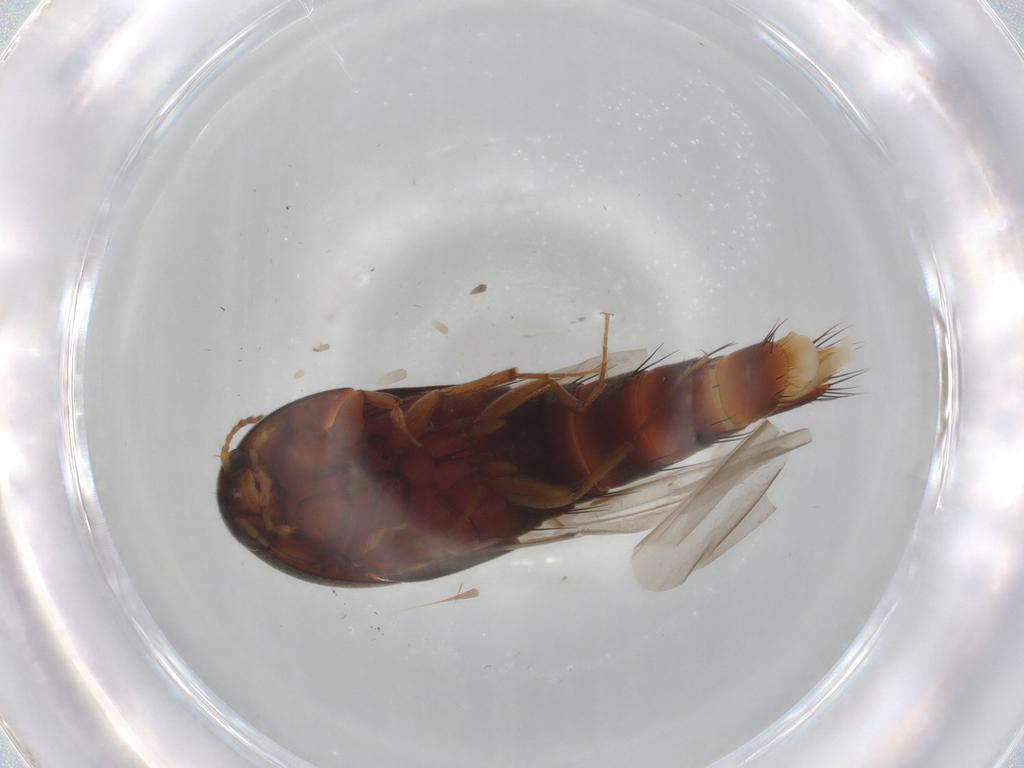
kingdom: Animalia
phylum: Arthropoda
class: Insecta
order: Coleoptera
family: Staphylinidae
